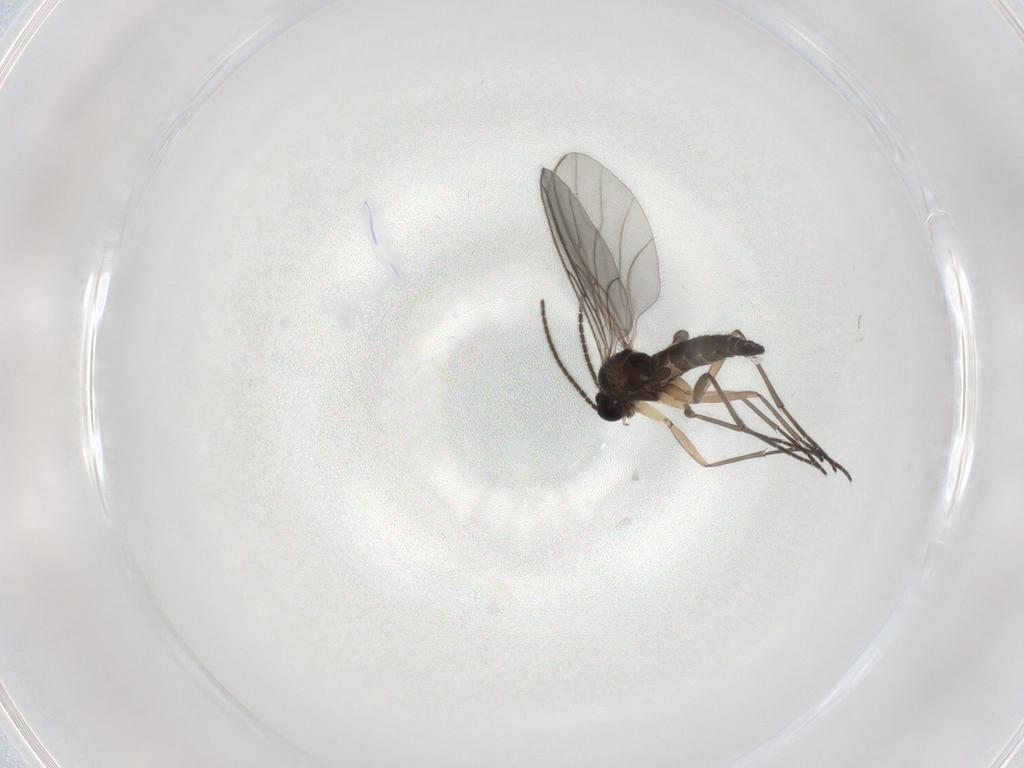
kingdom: Animalia
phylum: Arthropoda
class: Insecta
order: Diptera
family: Sciaridae
